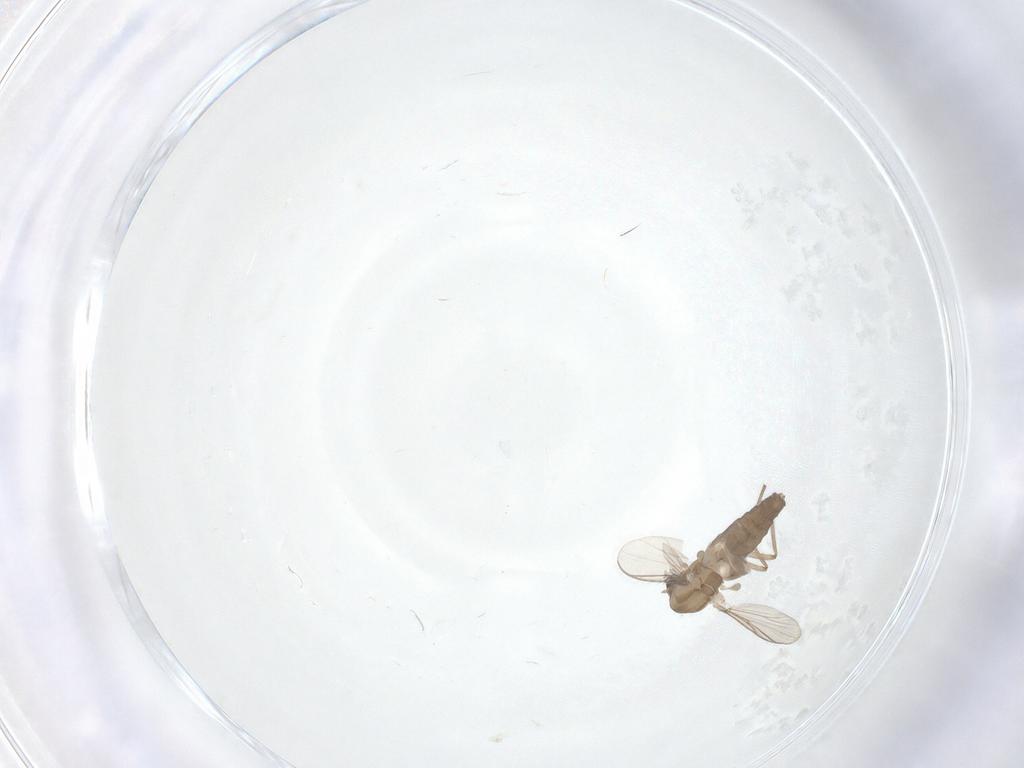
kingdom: Animalia
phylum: Arthropoda
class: Insecta
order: Diptera
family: Chironomidae
